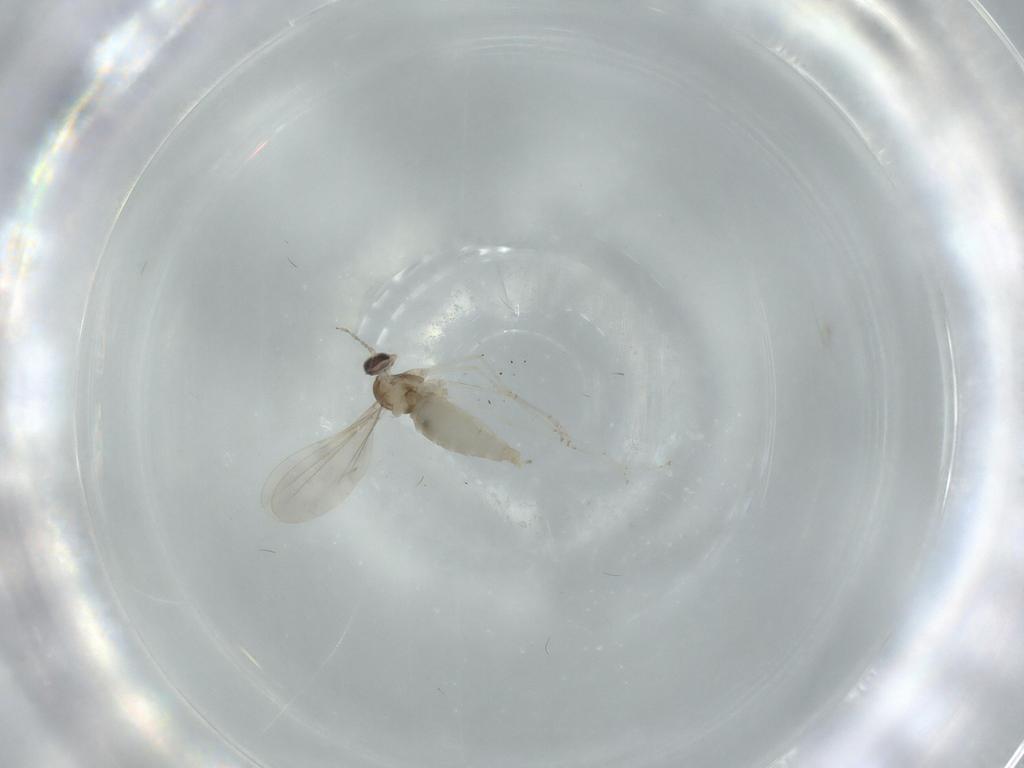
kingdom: Animalia
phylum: Arthropoda
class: Insecta
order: Diptera
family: Cecidomyiidae
